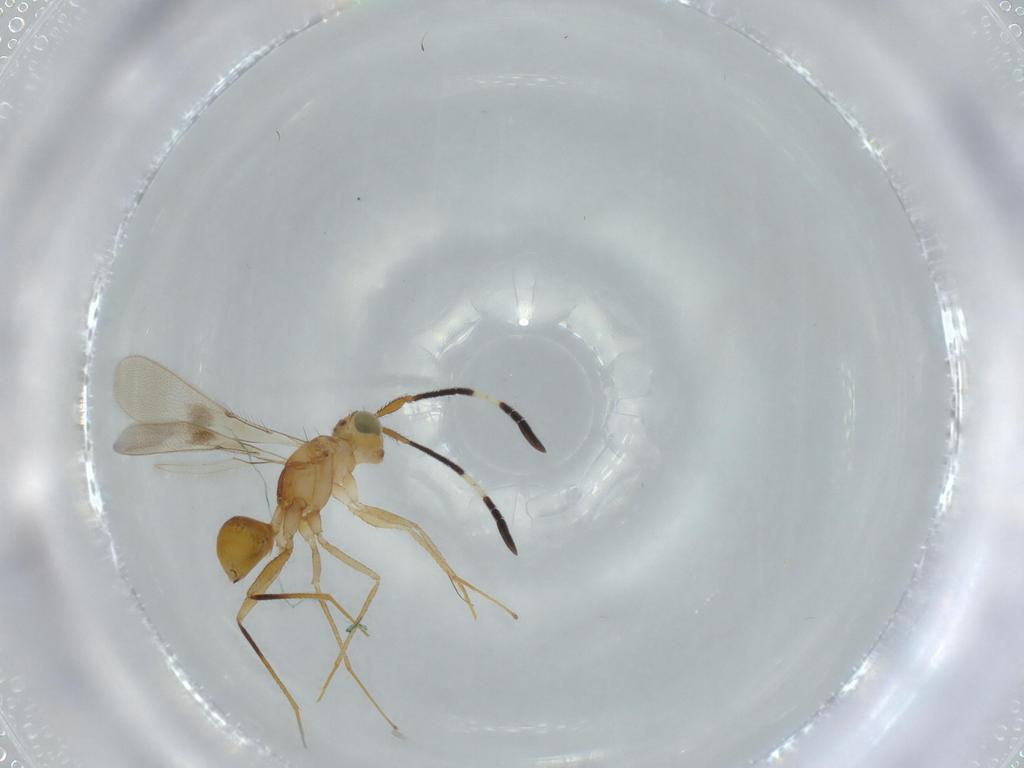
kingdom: Animalia
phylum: Arthropoda
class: Insecta
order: Hymenoptera
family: Mymaridae
